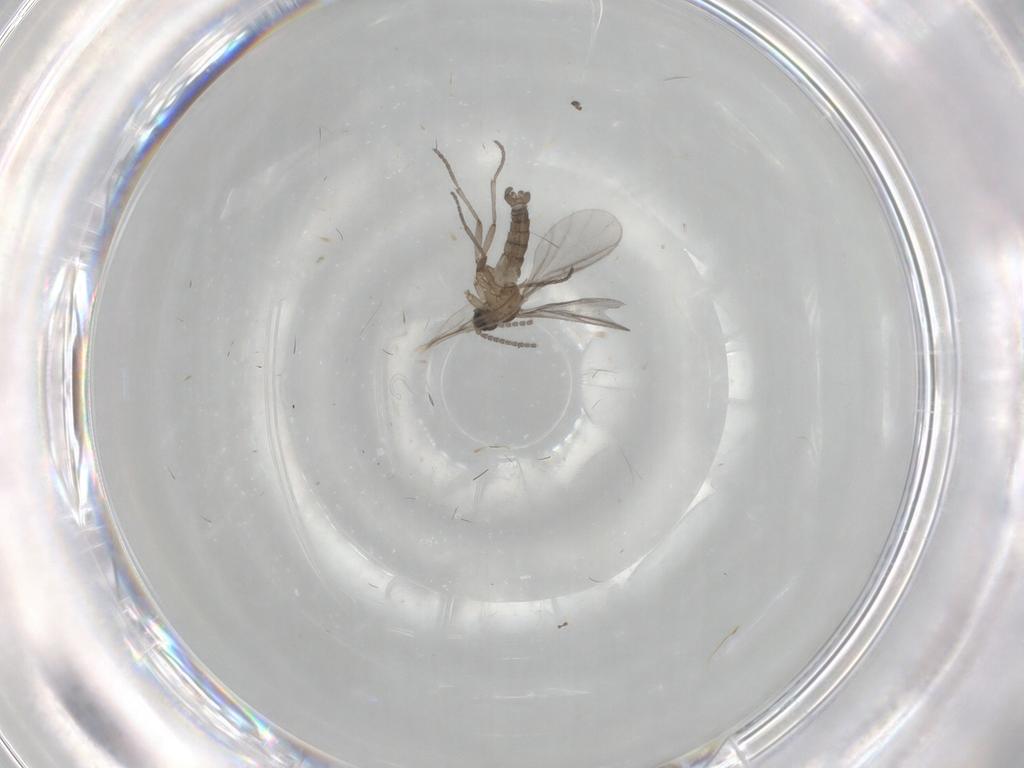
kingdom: Animalia
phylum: Arthropoda
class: Insecta
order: Diptera
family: Sciaridae
